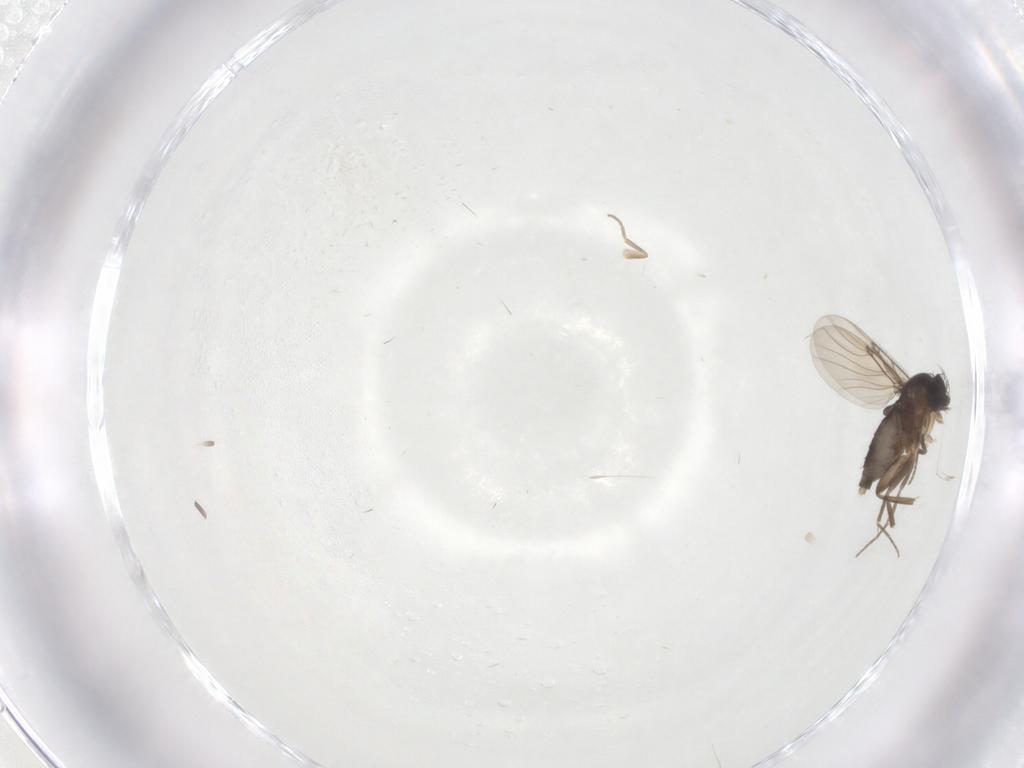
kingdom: Animalia
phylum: Arthropoda
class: Insecta
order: Diptera
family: Phoridae
